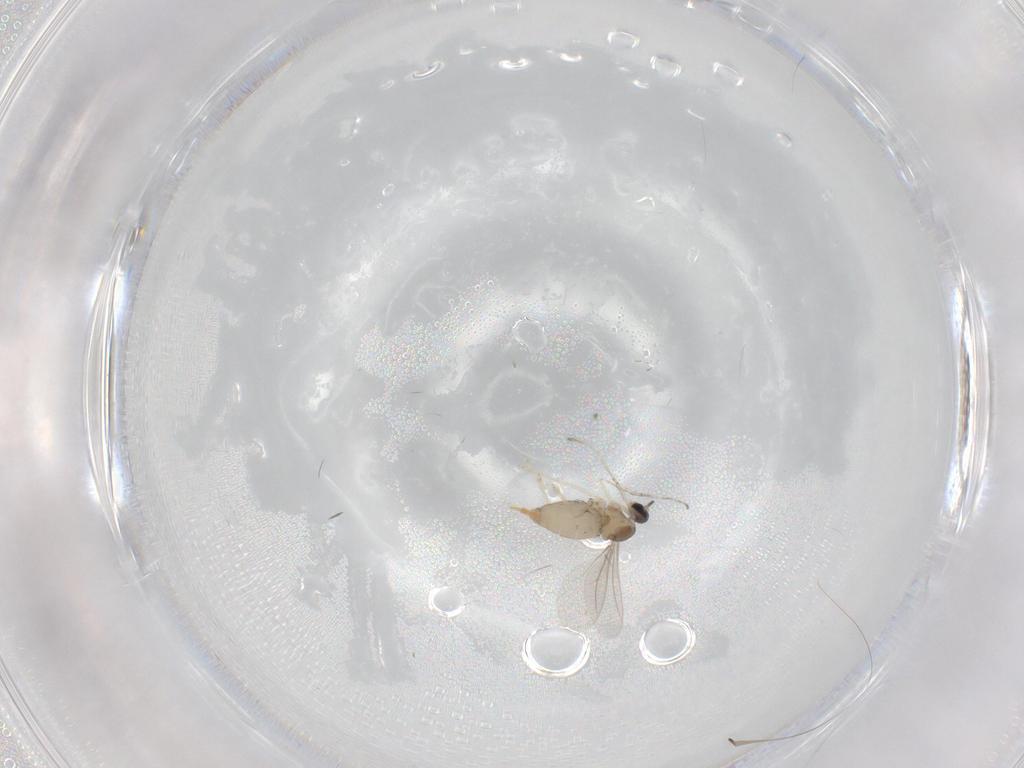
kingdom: Animalia
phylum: Arthropoda
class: Insecta
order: Diptera
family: Cecidomyiidae
